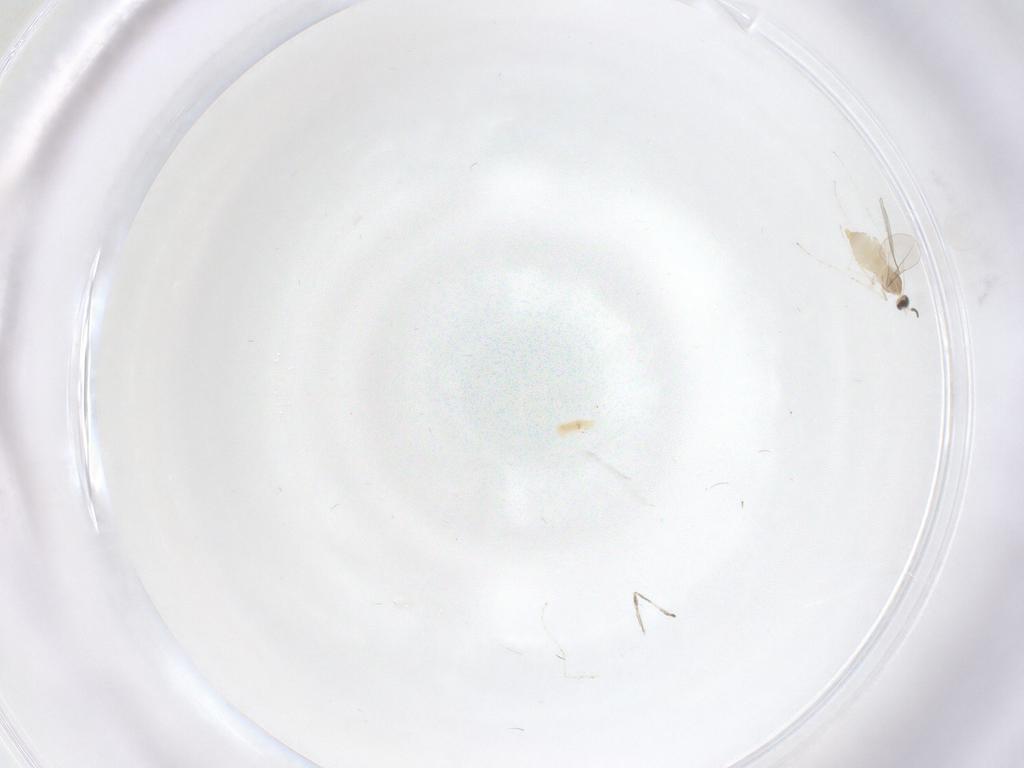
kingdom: Animalia
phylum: Arthropoda
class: Insecta
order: Diptera
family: Cecidomyiidae
